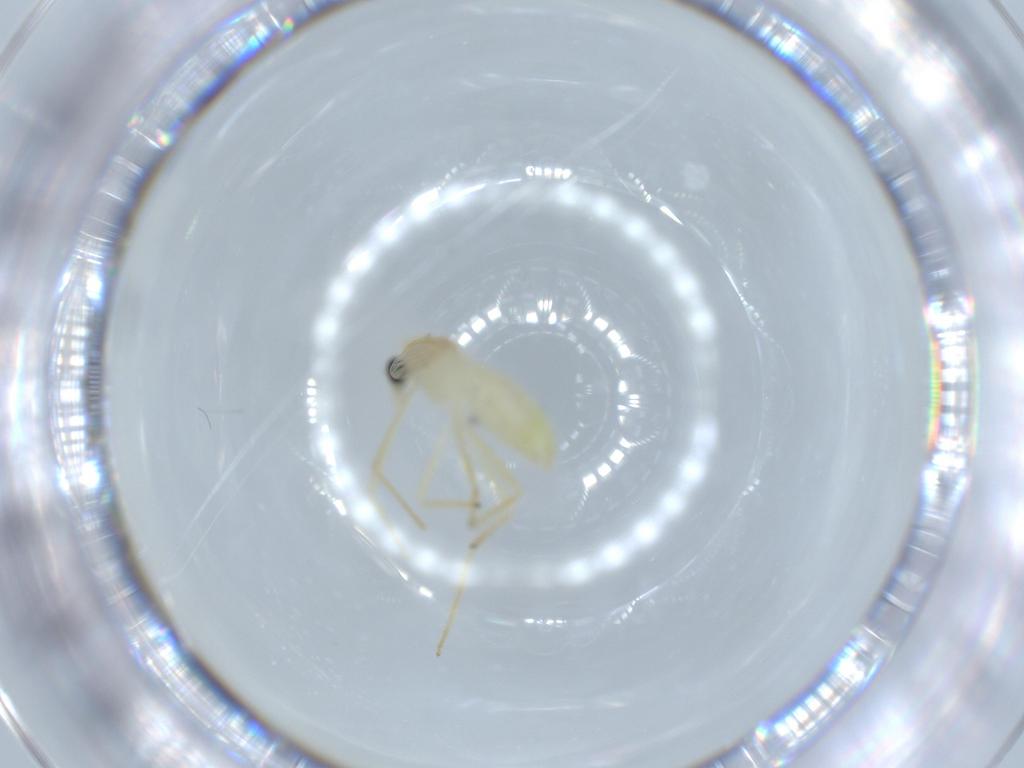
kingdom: Animalia
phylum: Arthropoda
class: Insecta
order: Diptera
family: Chironomidae
